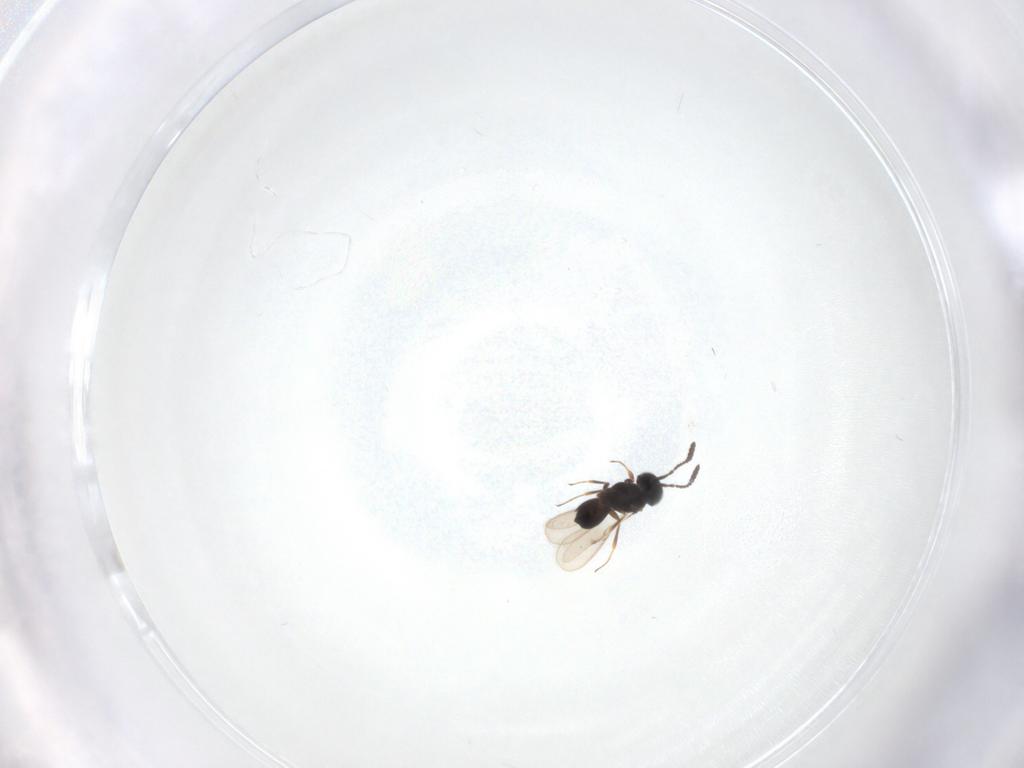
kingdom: Animalia
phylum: Arthropoda
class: Insecta
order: Hymenoptera
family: Scelionidae
